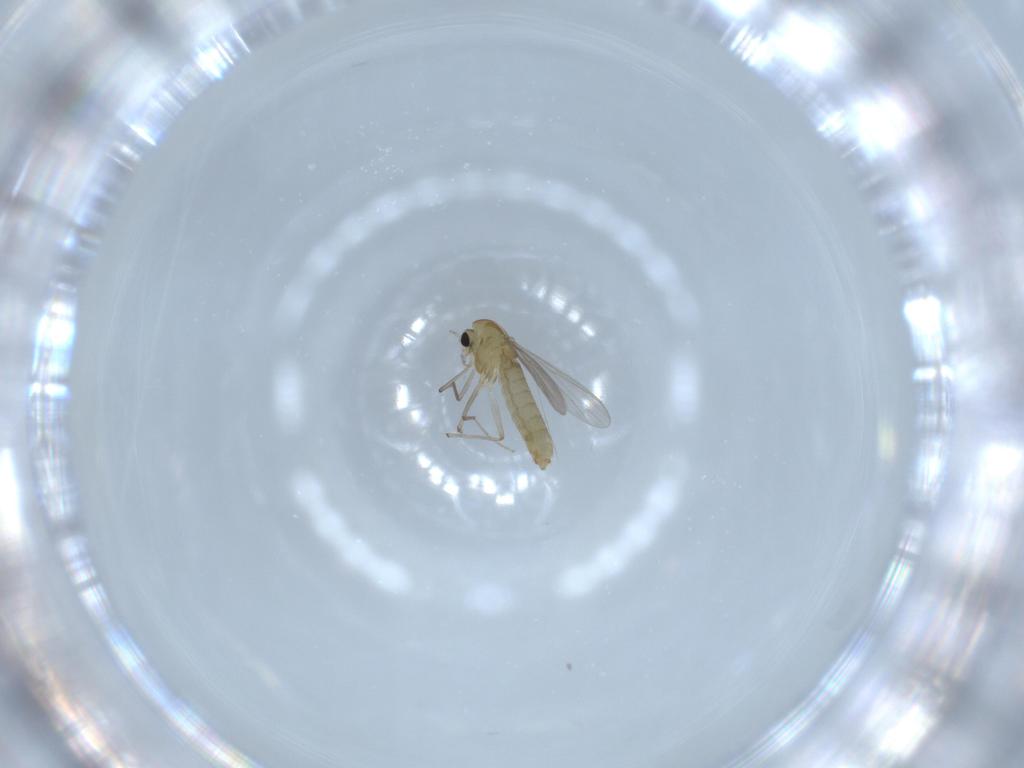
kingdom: Animalia
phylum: Arthropoda
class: Insecta
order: Diptera
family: Chironomidae
